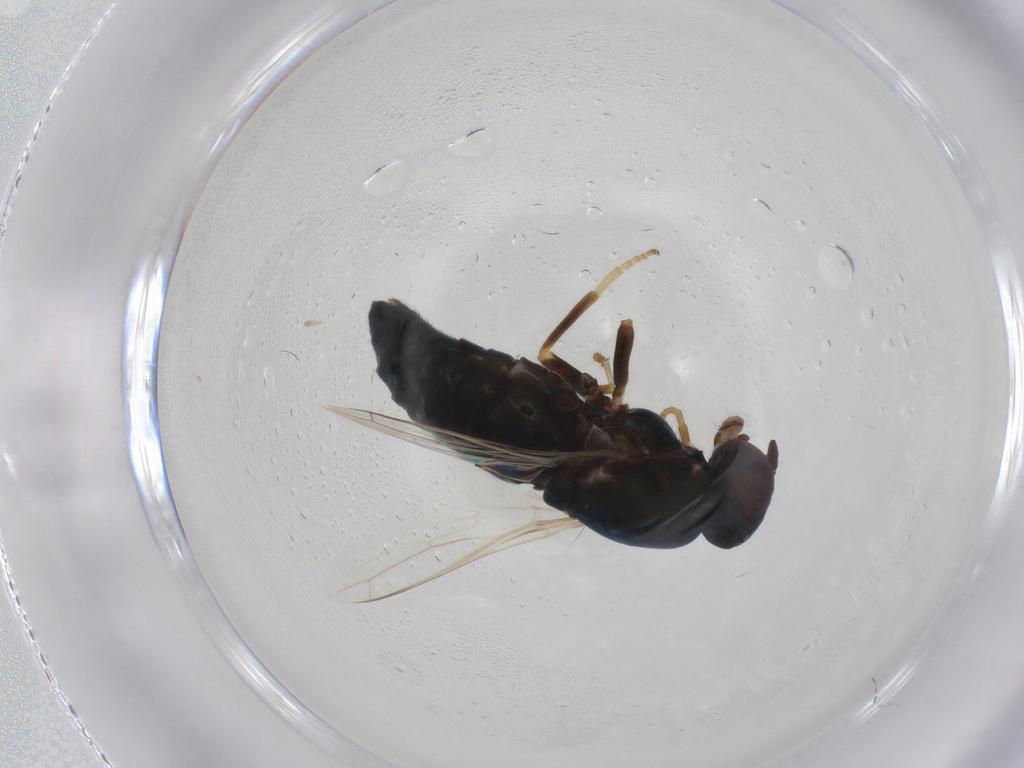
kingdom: Animalia
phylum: Arthropoda
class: Insecta
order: Diptera
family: Scenopinidae
